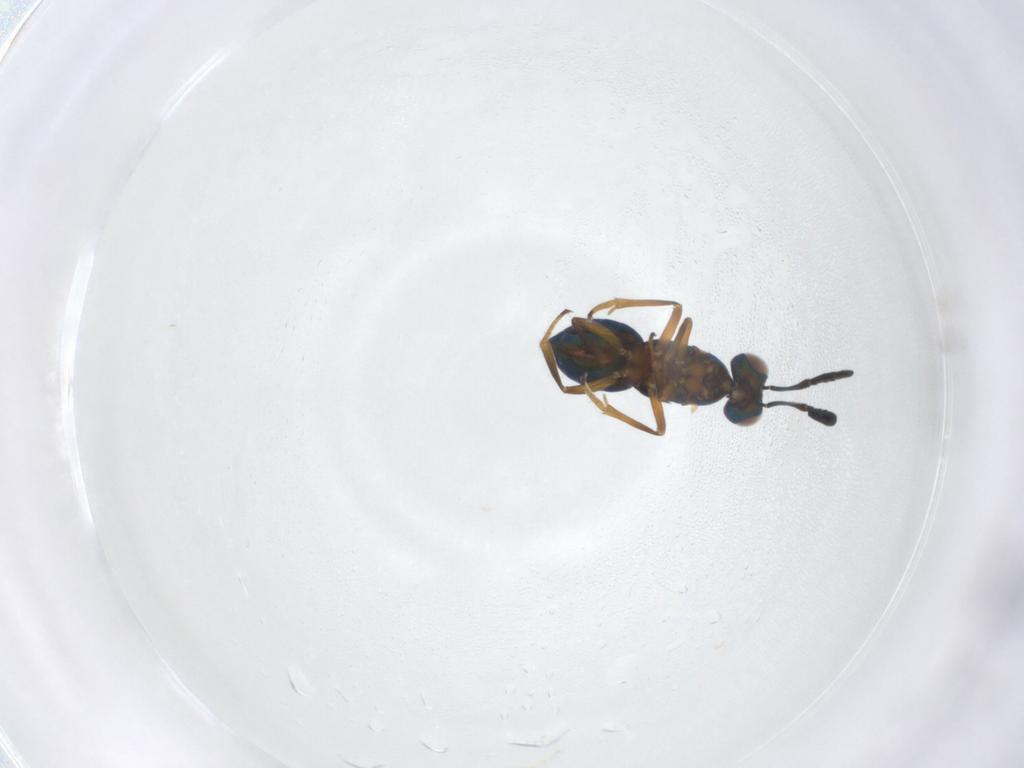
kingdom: Animalia
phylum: Arthropoda
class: Insecta
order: Hymenoptera
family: Encyrtidae
